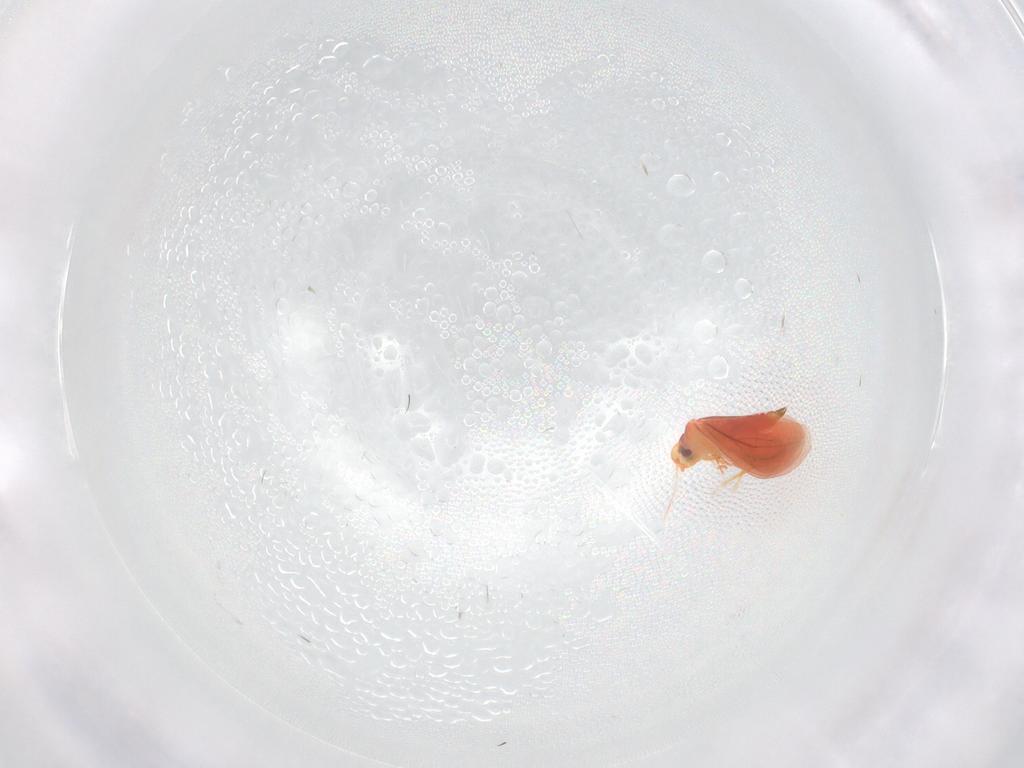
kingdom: Animalia
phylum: Arthropoda
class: Insecta
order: Hemiptera
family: Aleyrodidae
